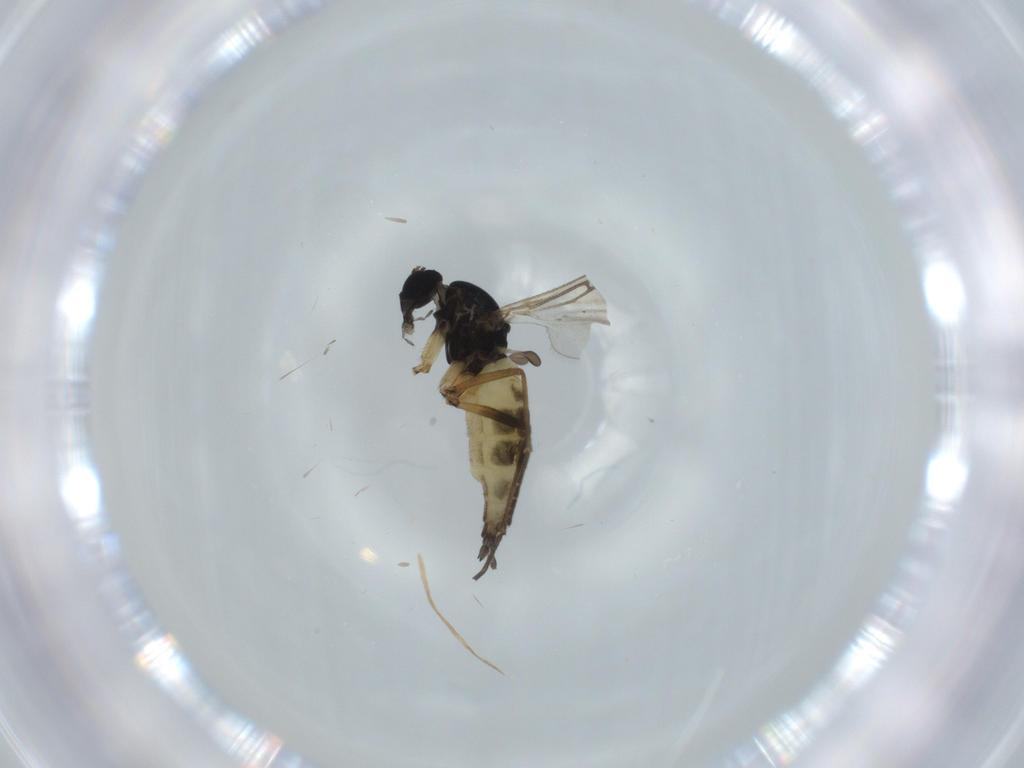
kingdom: Animalia
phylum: Arthropoda
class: Insecta
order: Diptera
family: Sciaridae
